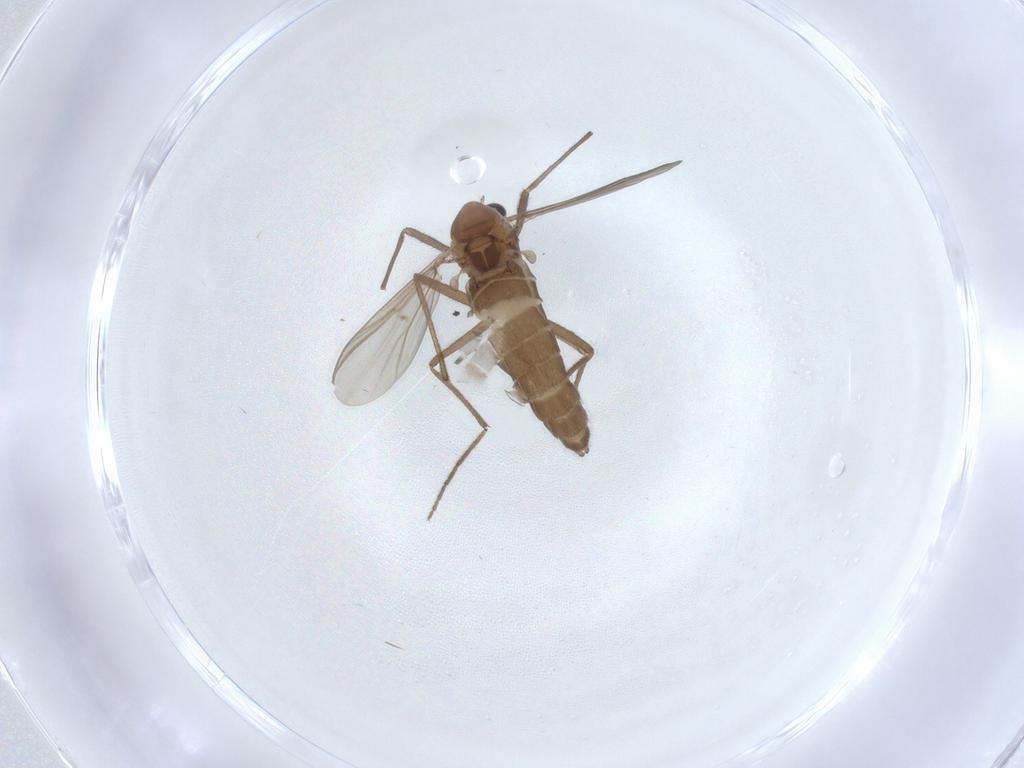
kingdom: Animalia
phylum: Arthropoda
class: Insecta
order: Diptera
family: Chironomidae
